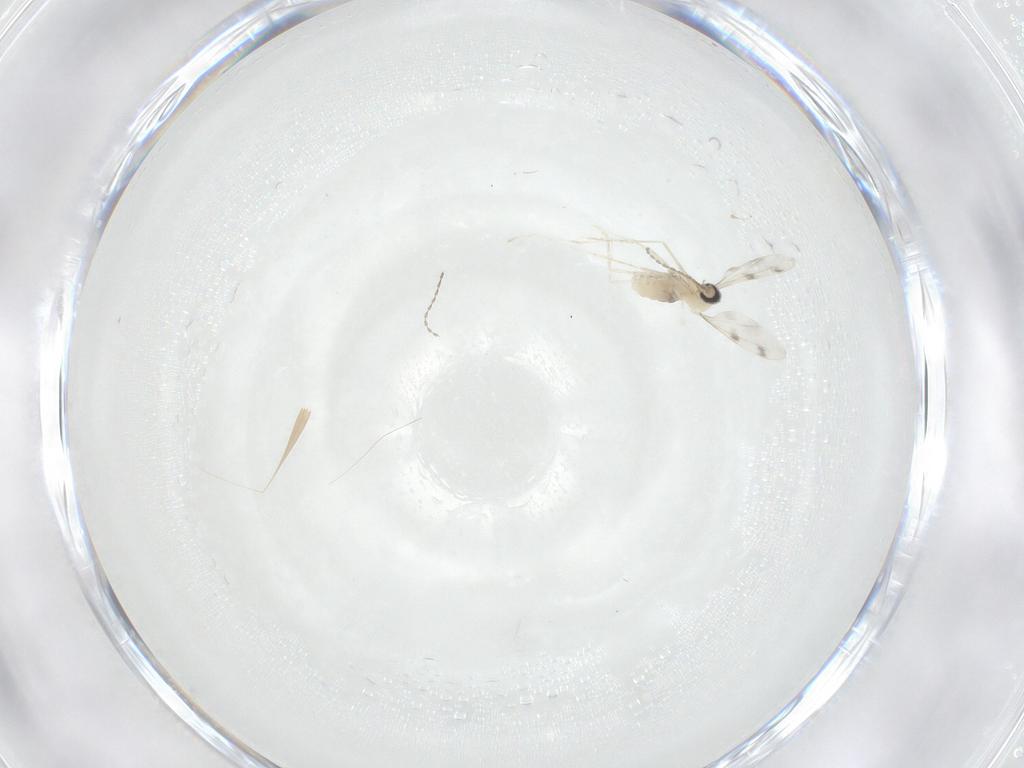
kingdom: Animalia
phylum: Arthropoda
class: Insecta
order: Diptera
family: Cecidomyiidae
